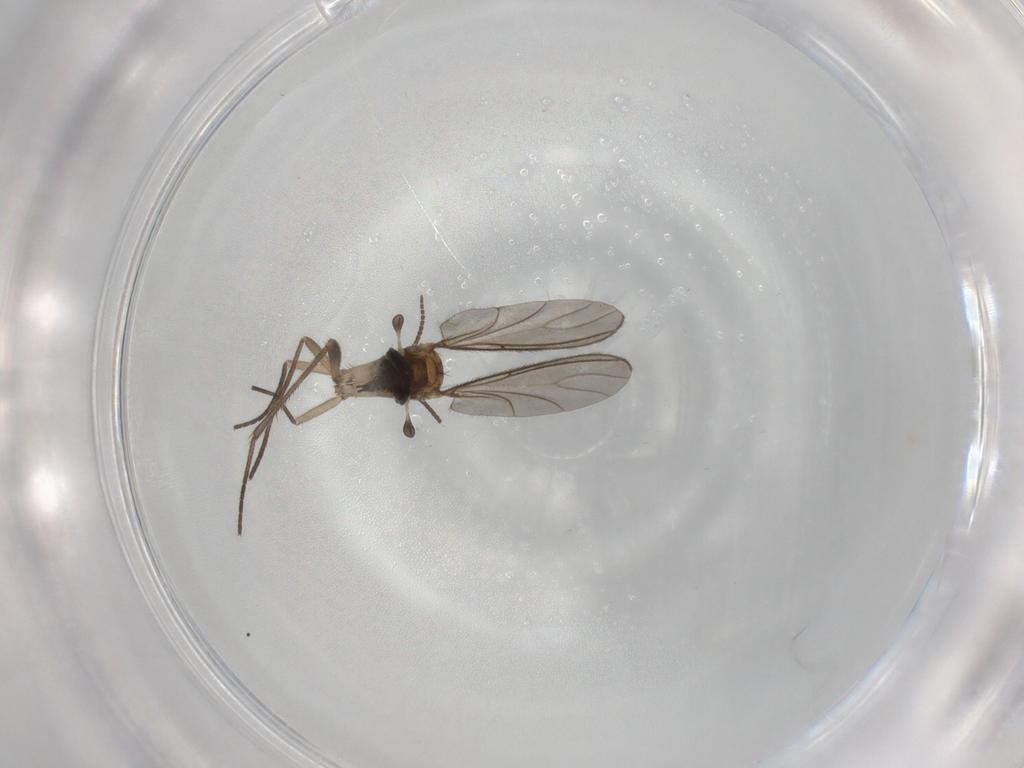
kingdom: Animalia
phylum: Arthropoda
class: Insecta
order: Diptera
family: Sciaridae
